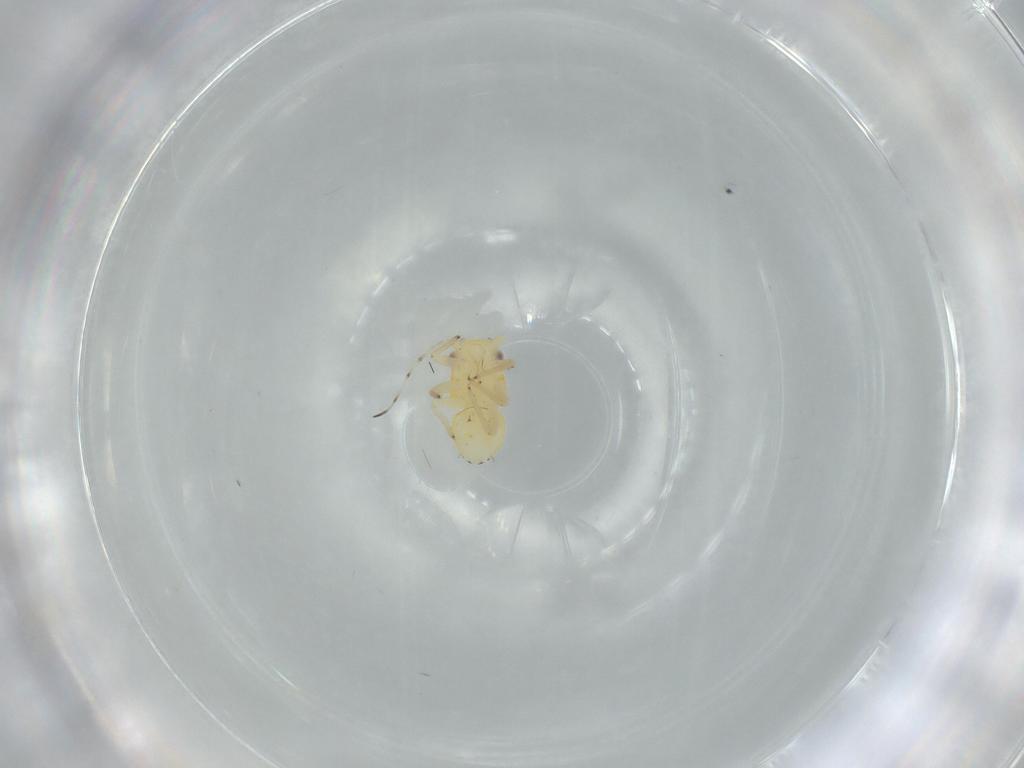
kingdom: Animalia
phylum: Arthropoda
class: Insecta
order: Hemiptera
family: Psyllidae
